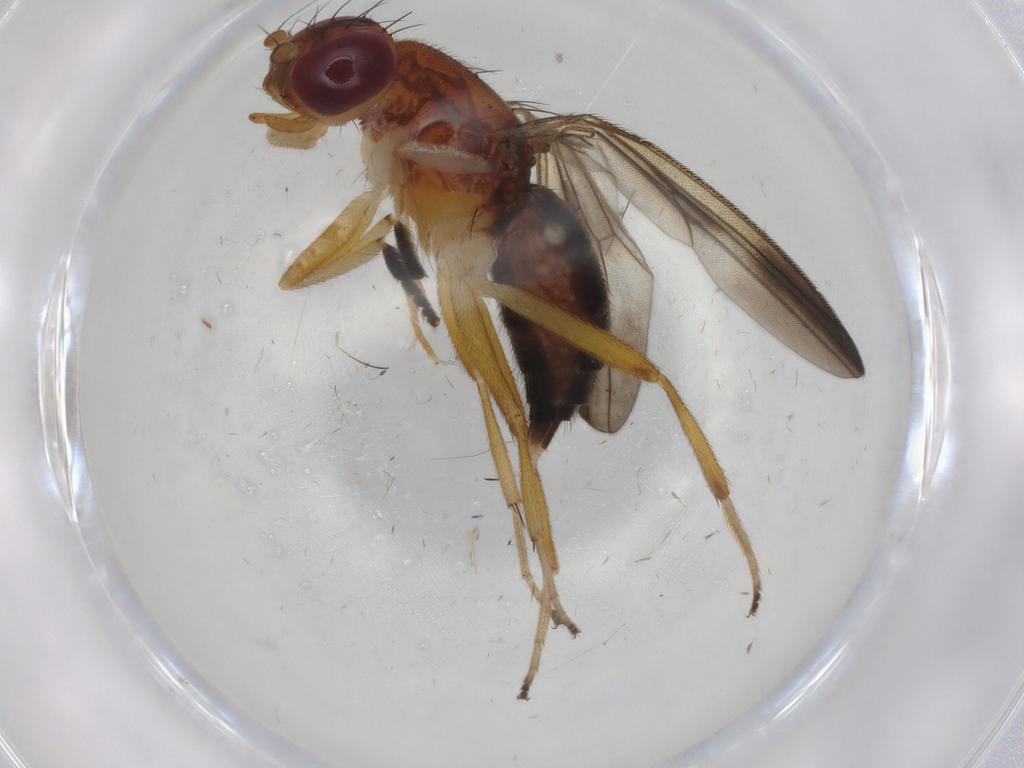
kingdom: Animalia
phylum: Arthropoda
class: Insecta
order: Diptera
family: Clusiidae
